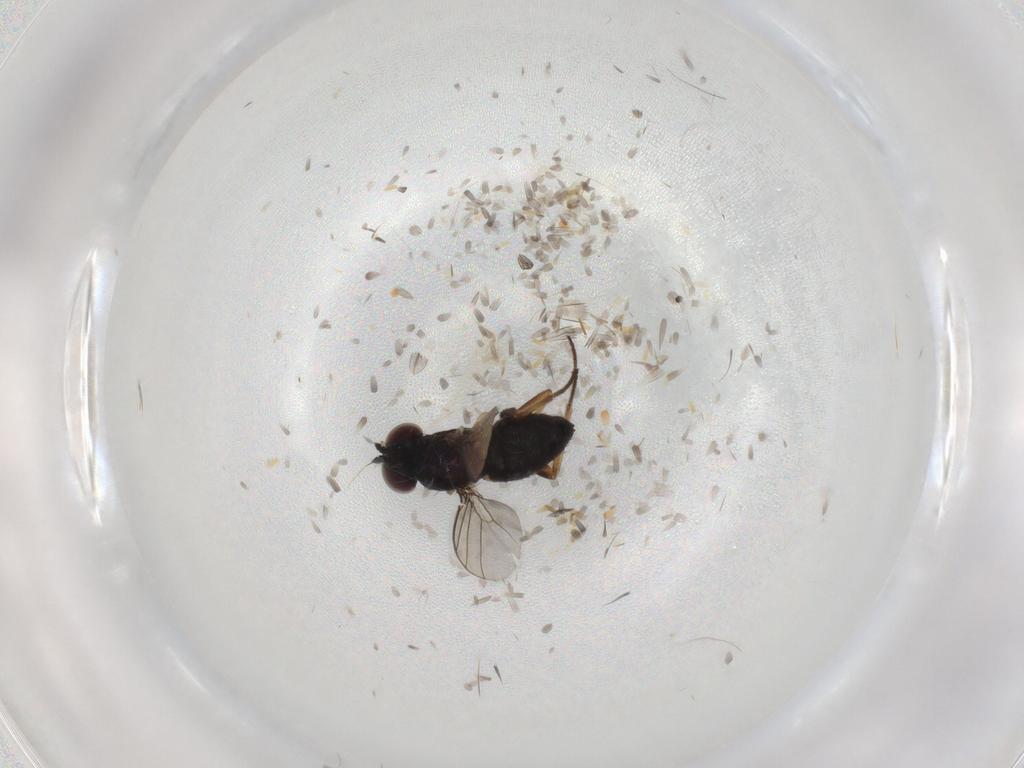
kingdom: Animalia
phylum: Arthropoda
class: Insecta
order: Diptera
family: Dolichopodidae
